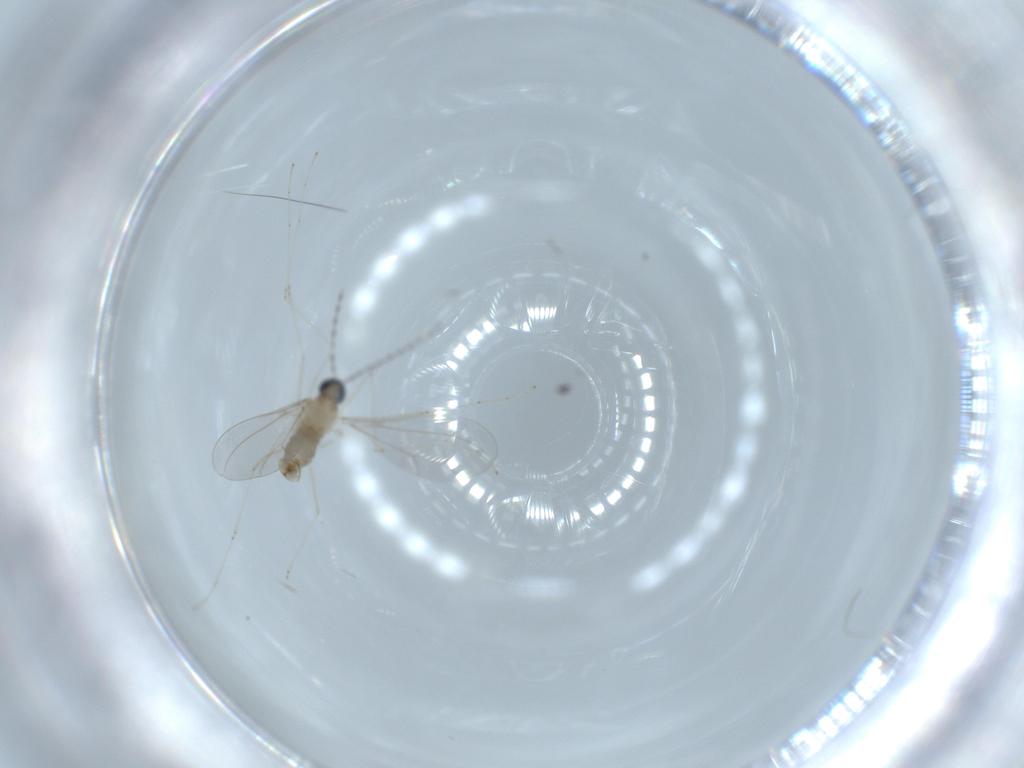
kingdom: Animalia
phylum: Arthropoda
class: Insecta
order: Diptera
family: Cecidomyiidae
